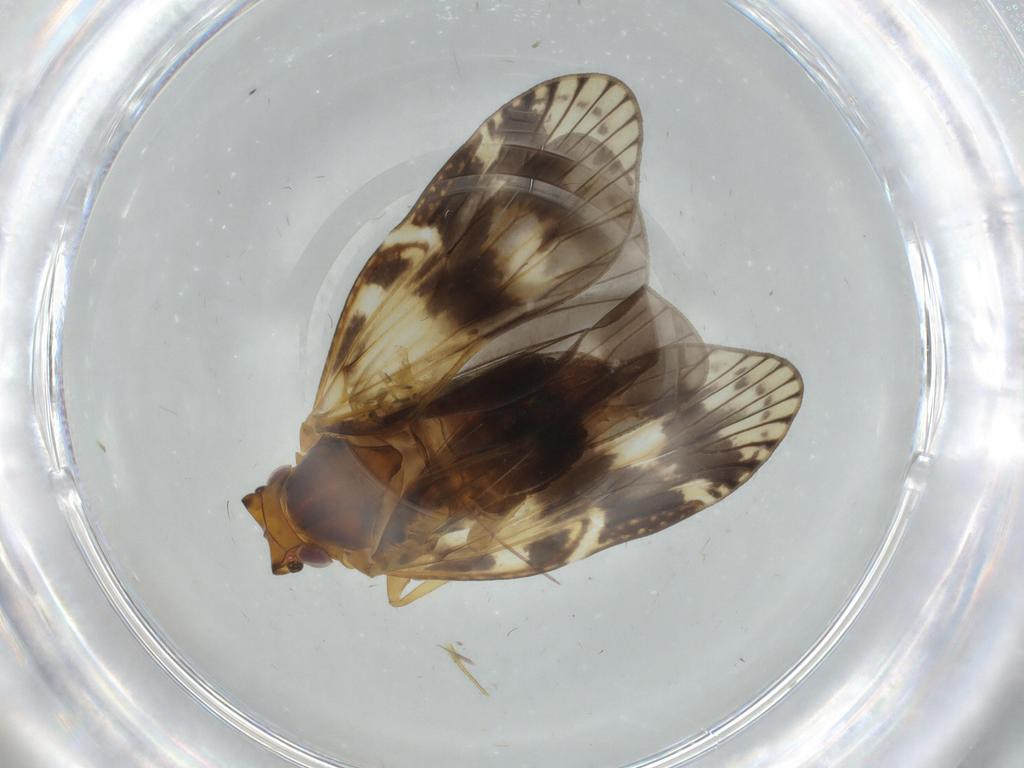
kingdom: Animalia
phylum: Arthropoda
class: Insecta
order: Hemiptera
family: Cixiidae
